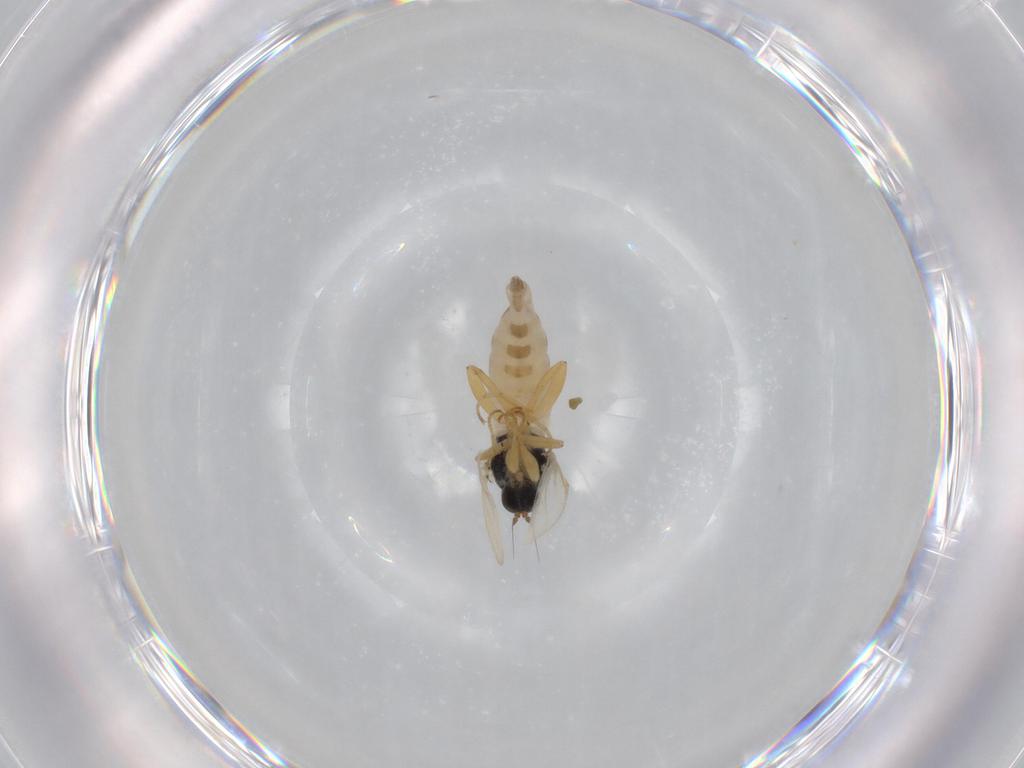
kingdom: Animalia
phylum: Arthropoda
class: Insecta
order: Diptera
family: Hybotidae
